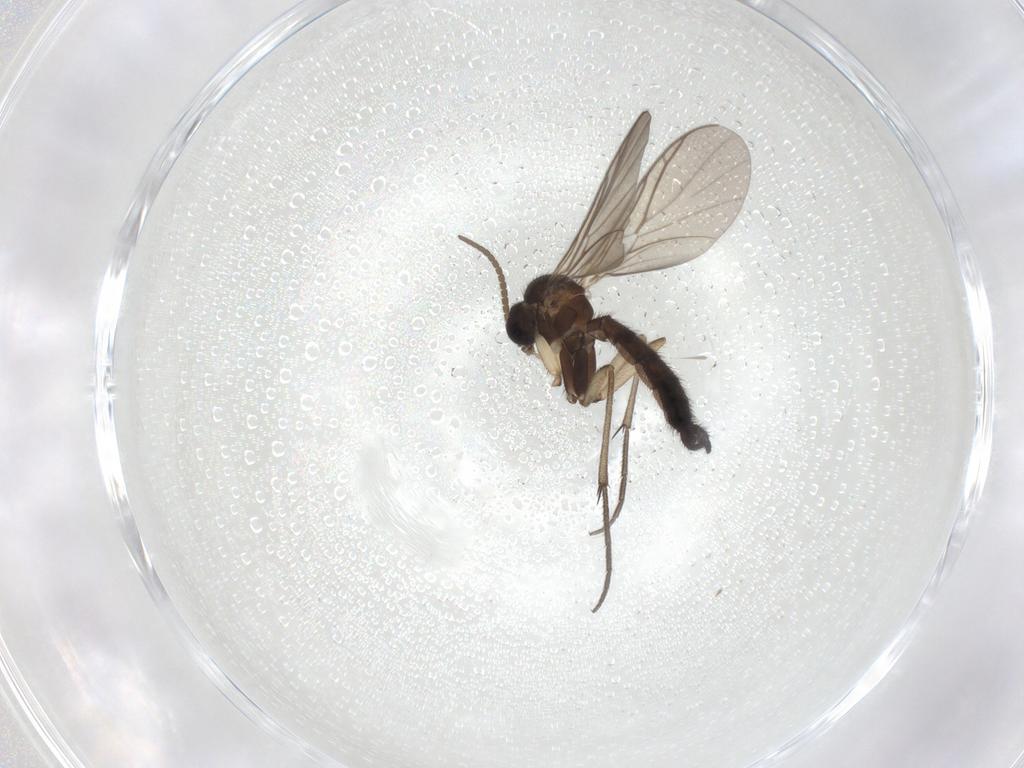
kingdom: Animalia
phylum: Arthropoda
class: Insecta
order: Diptera
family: Keroplatidae
